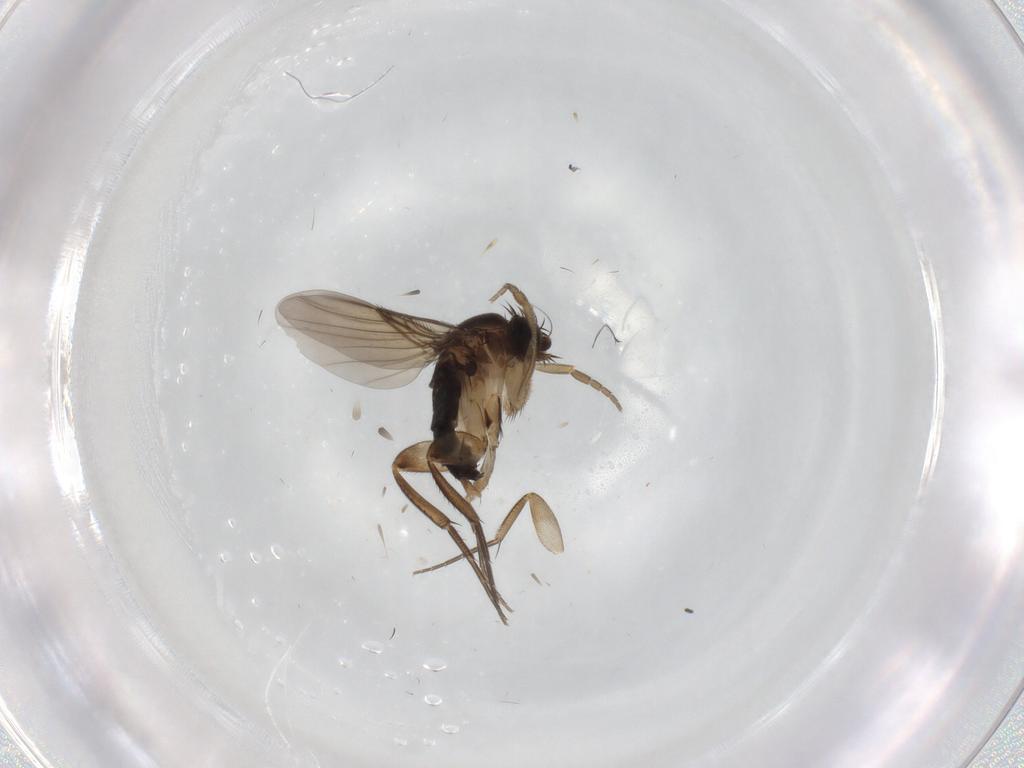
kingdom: Animalia
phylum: Arthropoda
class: Insecta
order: Diptera
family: Phoridae
